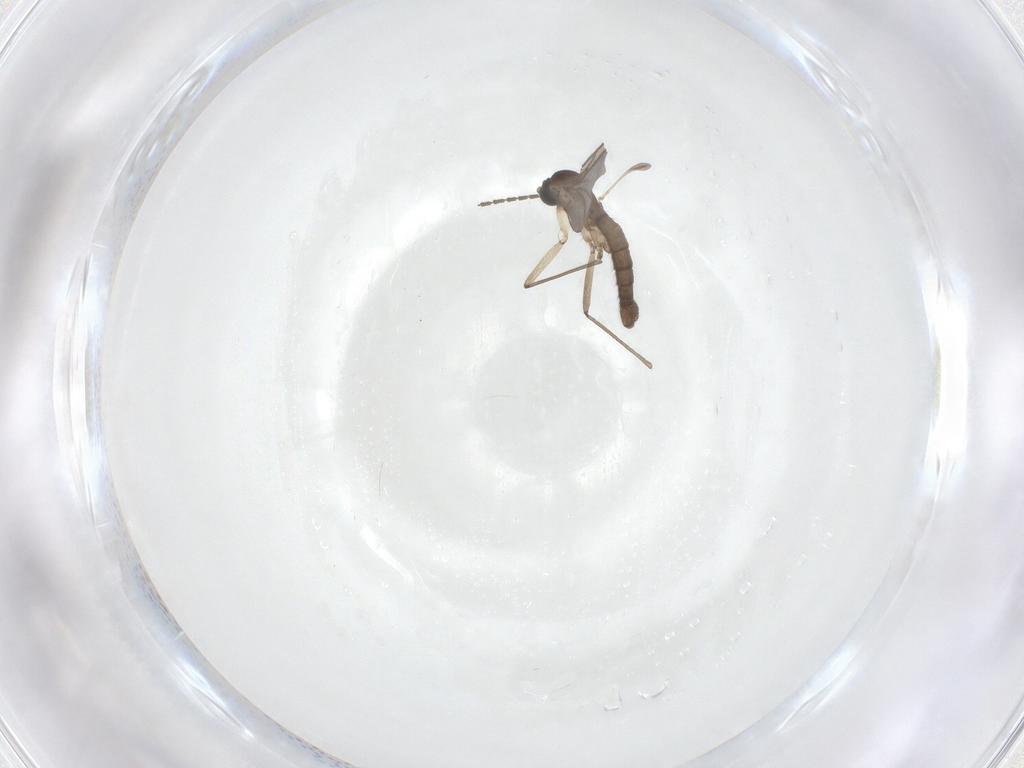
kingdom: Animalia
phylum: Arthropoda
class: Insecta
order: Diptera
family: Sciaridae
